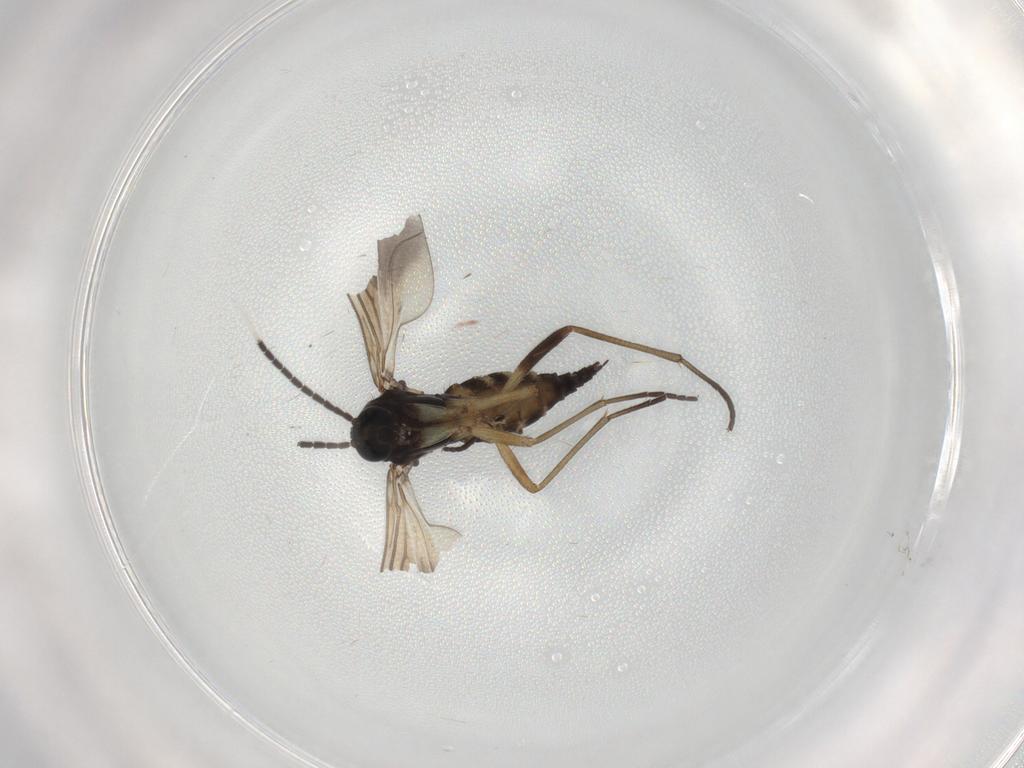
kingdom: Animalia
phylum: Arthropoda
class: Insecta
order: Diptera
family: Sciaridae
